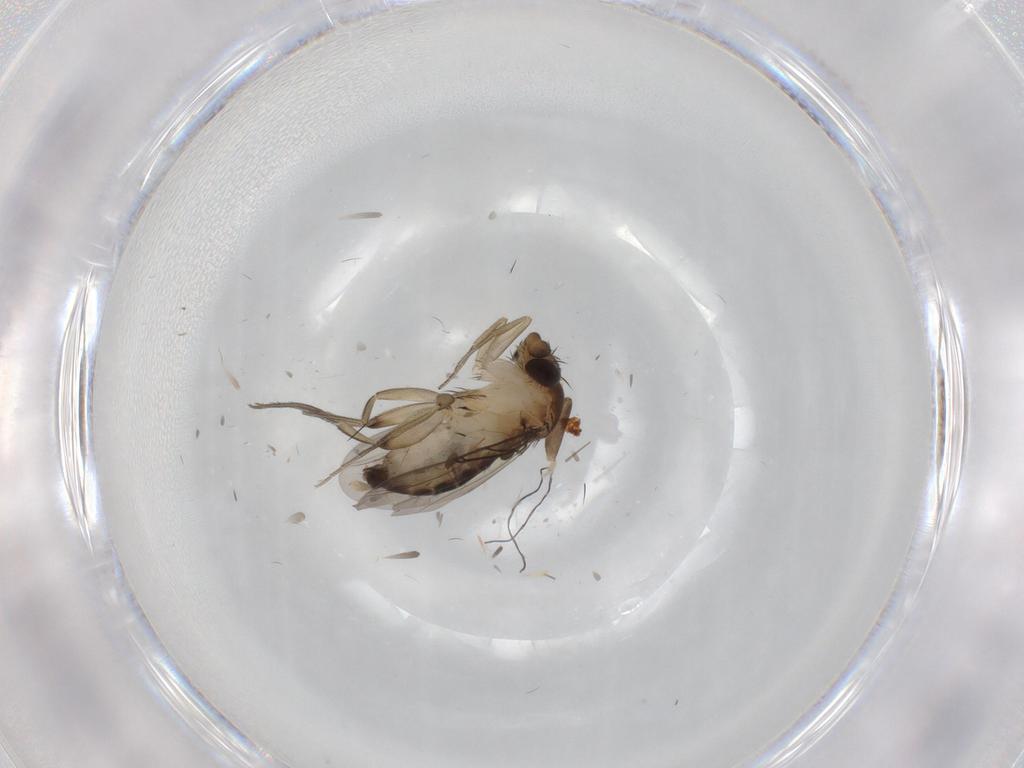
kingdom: Animalia
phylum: Arthropoda
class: Insecta
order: Diptera
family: Phoridae
